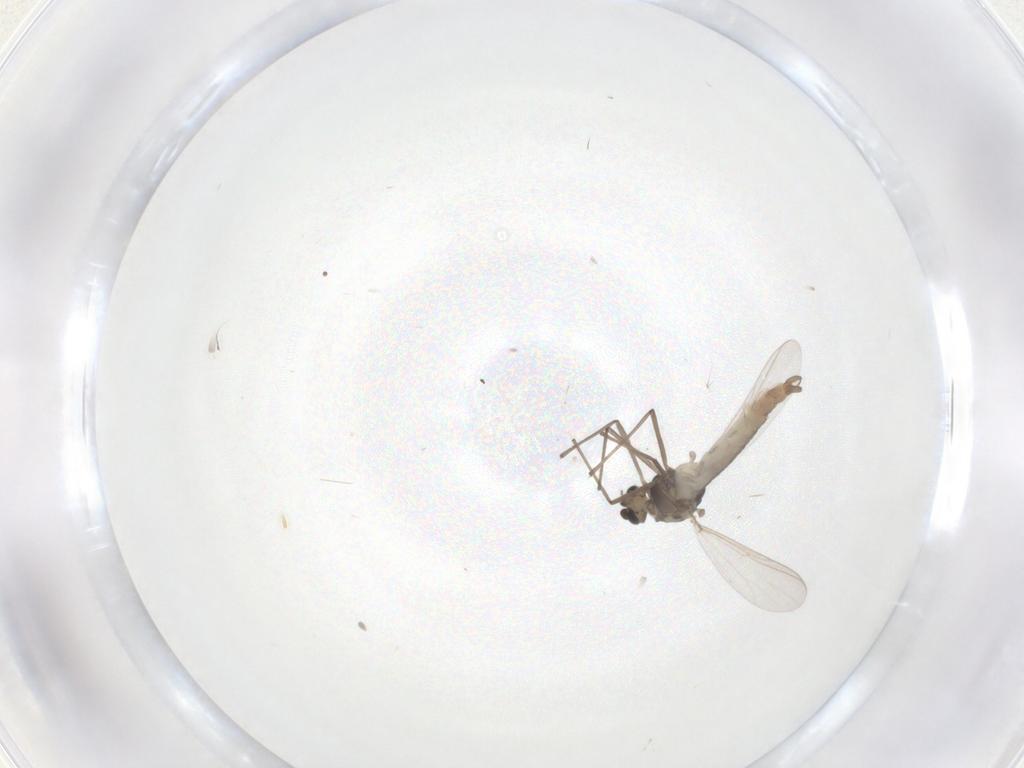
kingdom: Animalia
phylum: Arthropoda
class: Insecta
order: Diptera
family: Chironomidae
